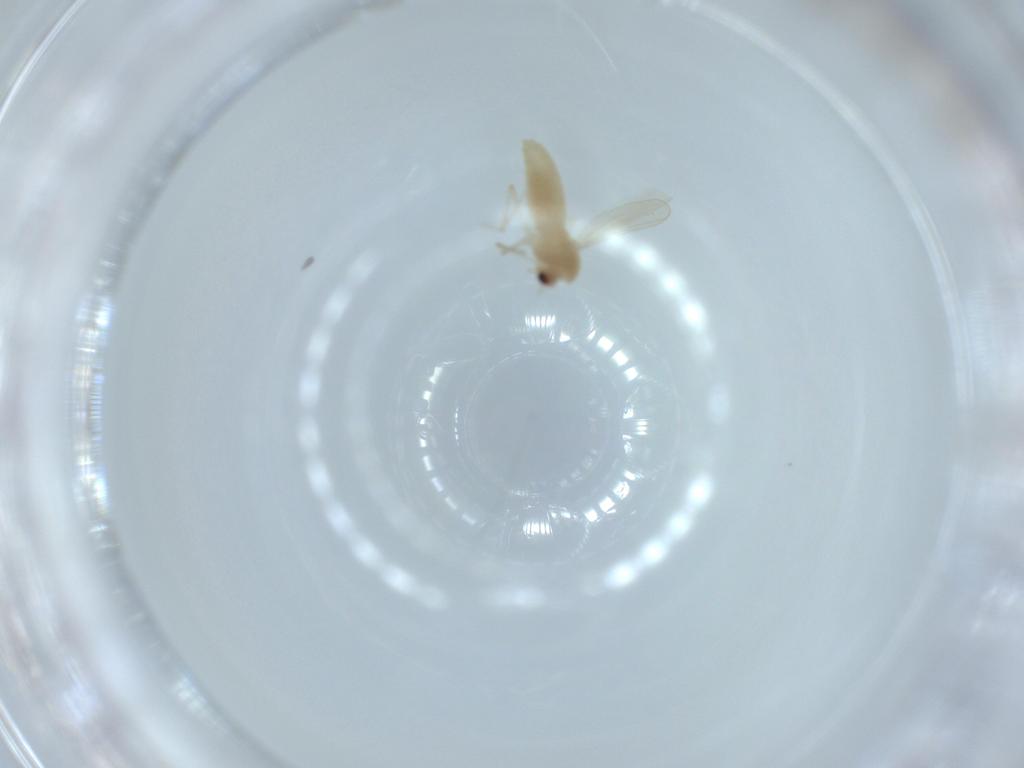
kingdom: Animalia
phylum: Arthropoda
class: Insecta
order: Diptera
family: Chironomidae
